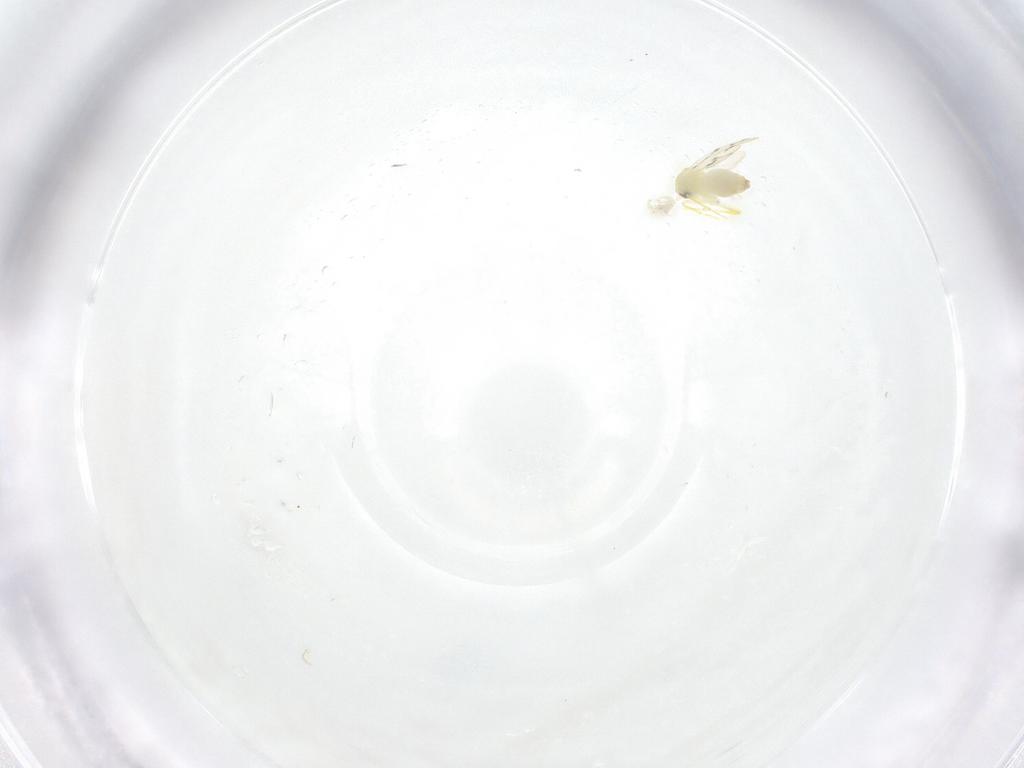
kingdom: Animalia
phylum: Arthropoda
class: Insecta
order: Hemiptera
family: Aleyrodidae
